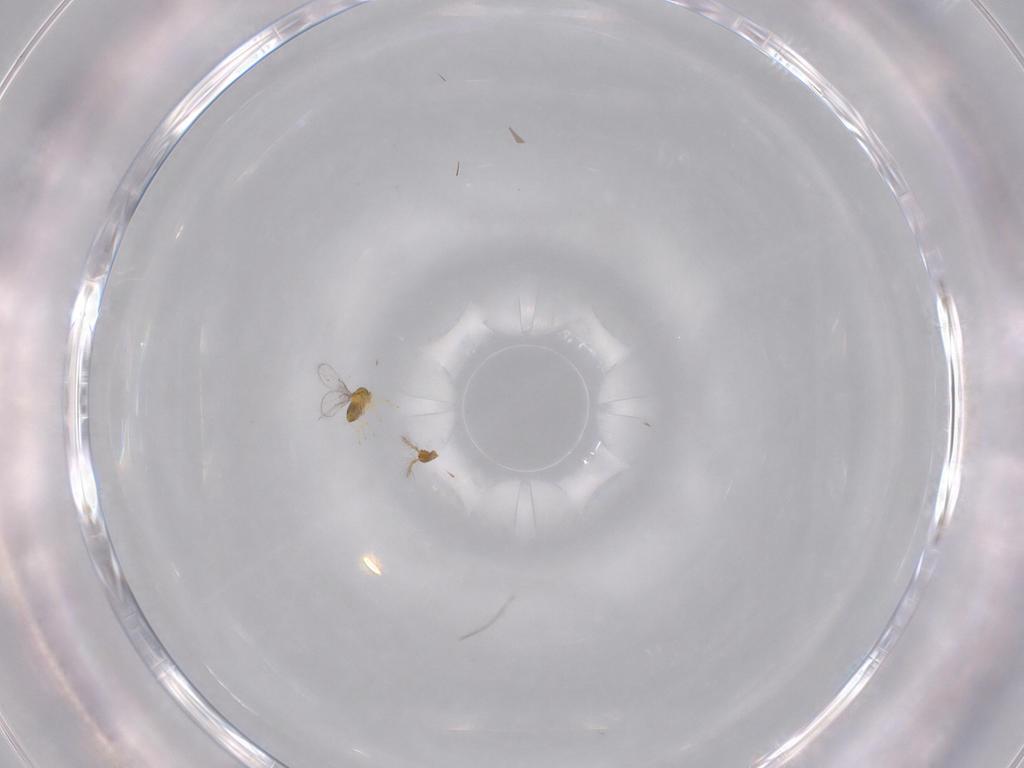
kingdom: Animalia
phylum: Arthropoda
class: Insecta
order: Hymenoptera
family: Trichogrammatidae
